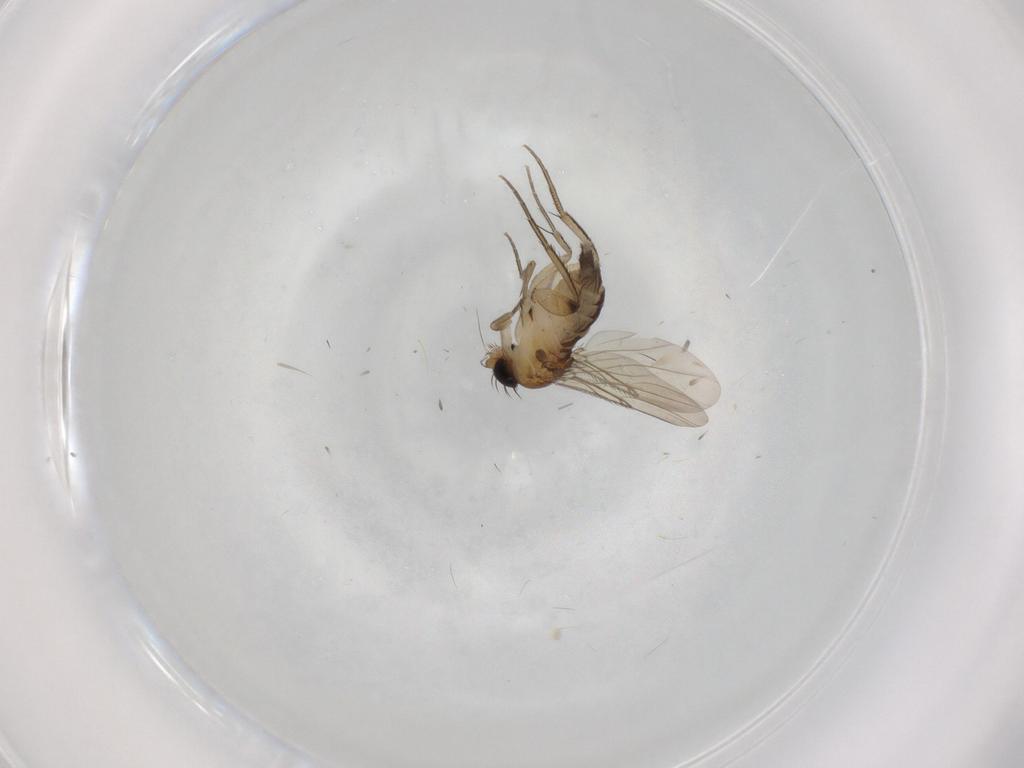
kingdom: Animalia
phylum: Arthropoda
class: Insecta
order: Diptera
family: Phoridae
